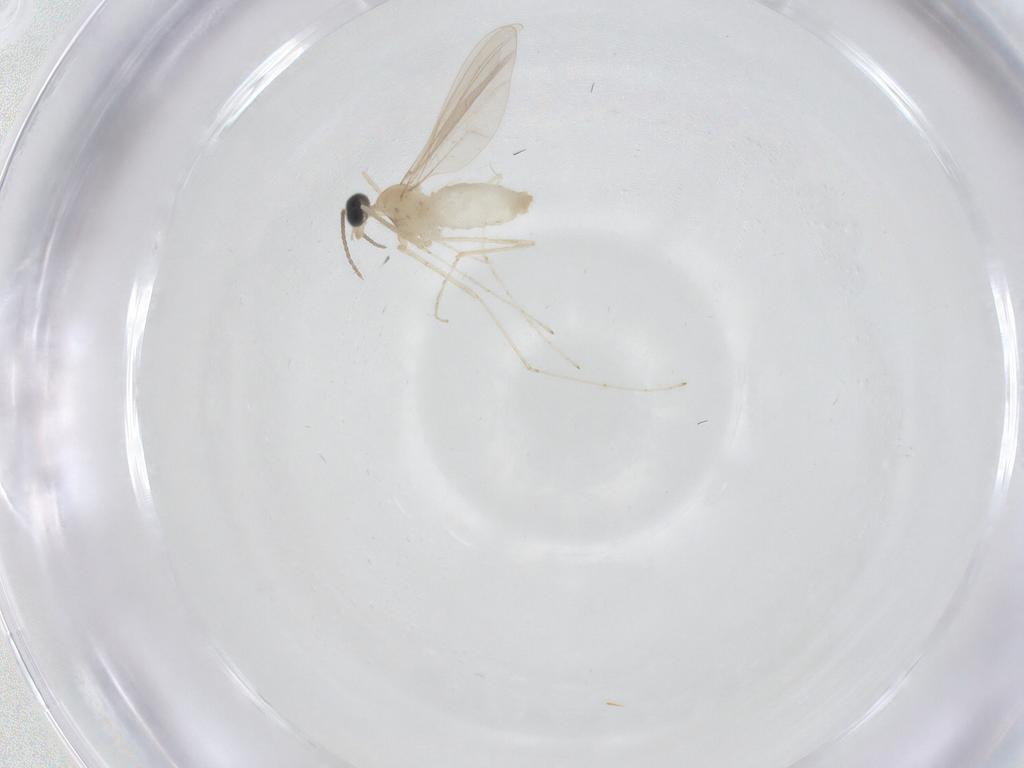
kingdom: Animalia
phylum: Arthropoda
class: Insecta
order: Diptera
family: Cecidomyiidae
